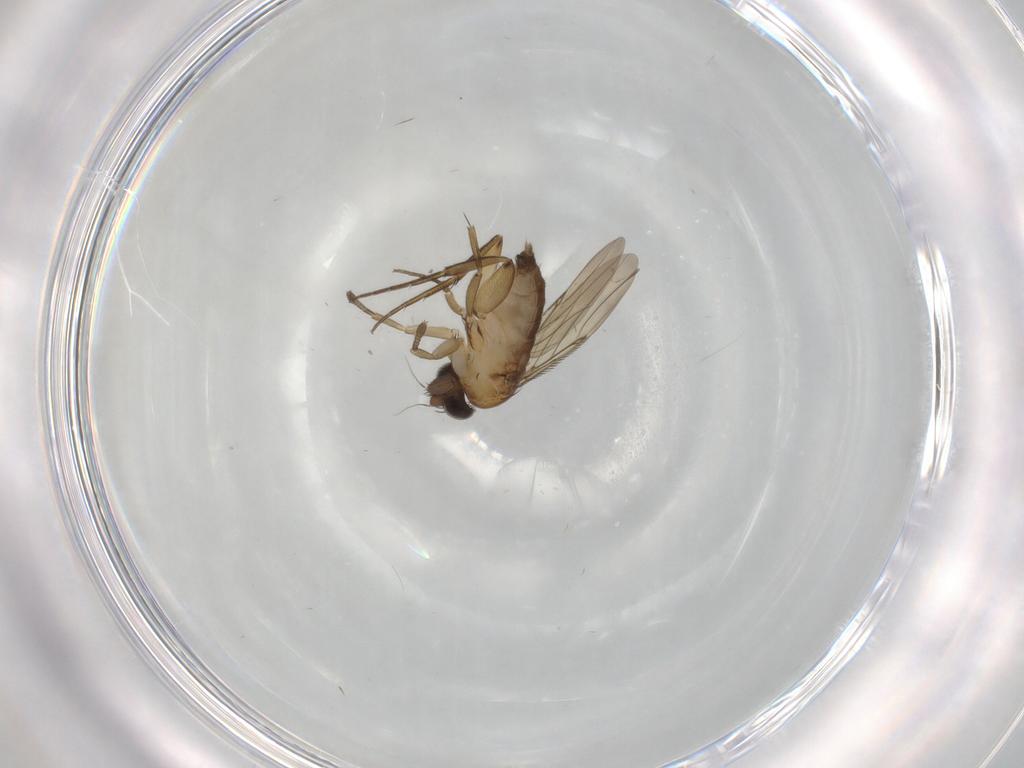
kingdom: Animalia
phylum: Arthropoda
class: Insecta
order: Diptera
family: Phoridae
